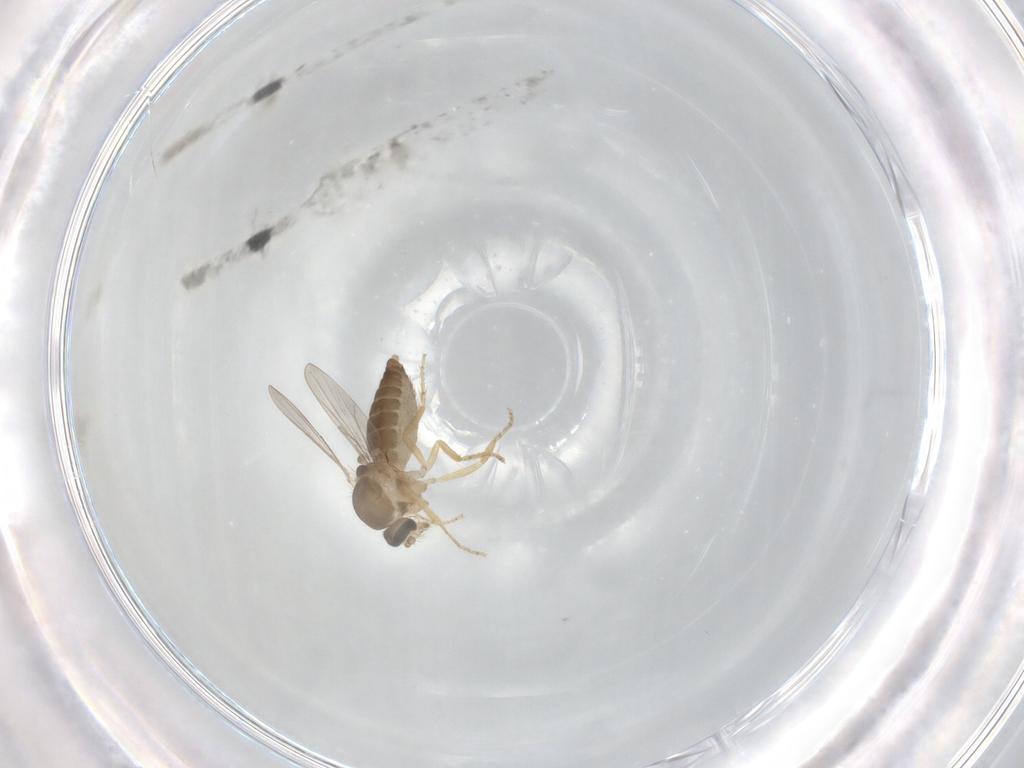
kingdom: Animalia
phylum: Arthropoda
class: Insecta
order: Diptera
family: Ceratopogonidae
